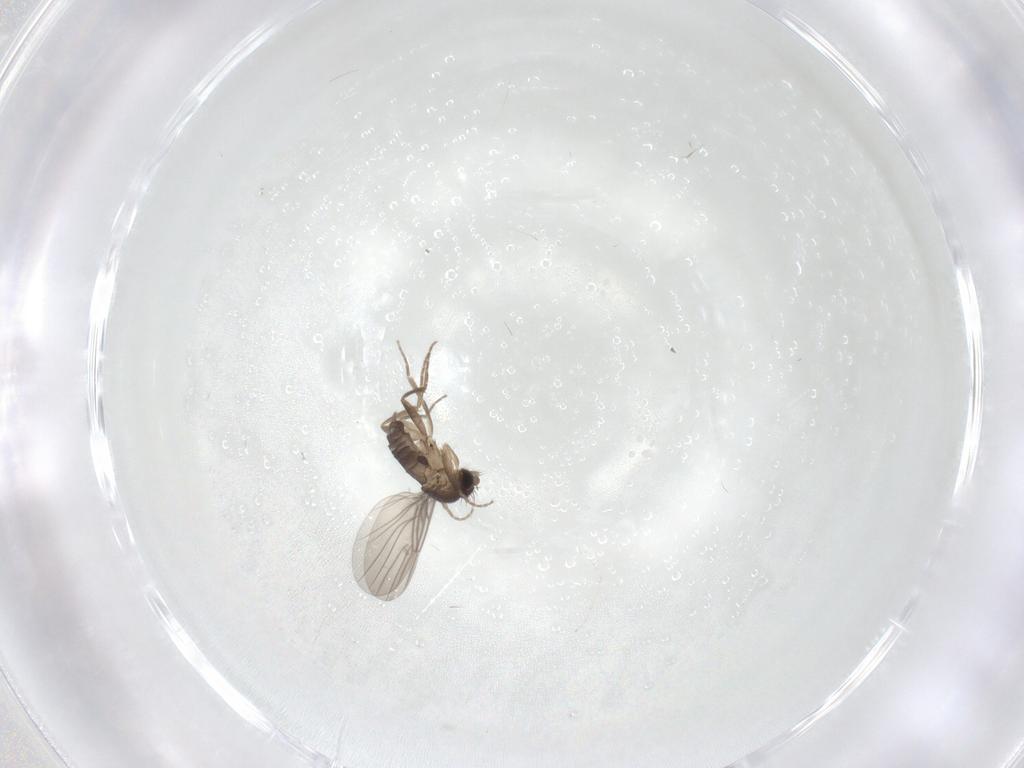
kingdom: Animalia
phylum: Arthropoda
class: Insecta
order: Diptera
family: Cecidomyiidae
